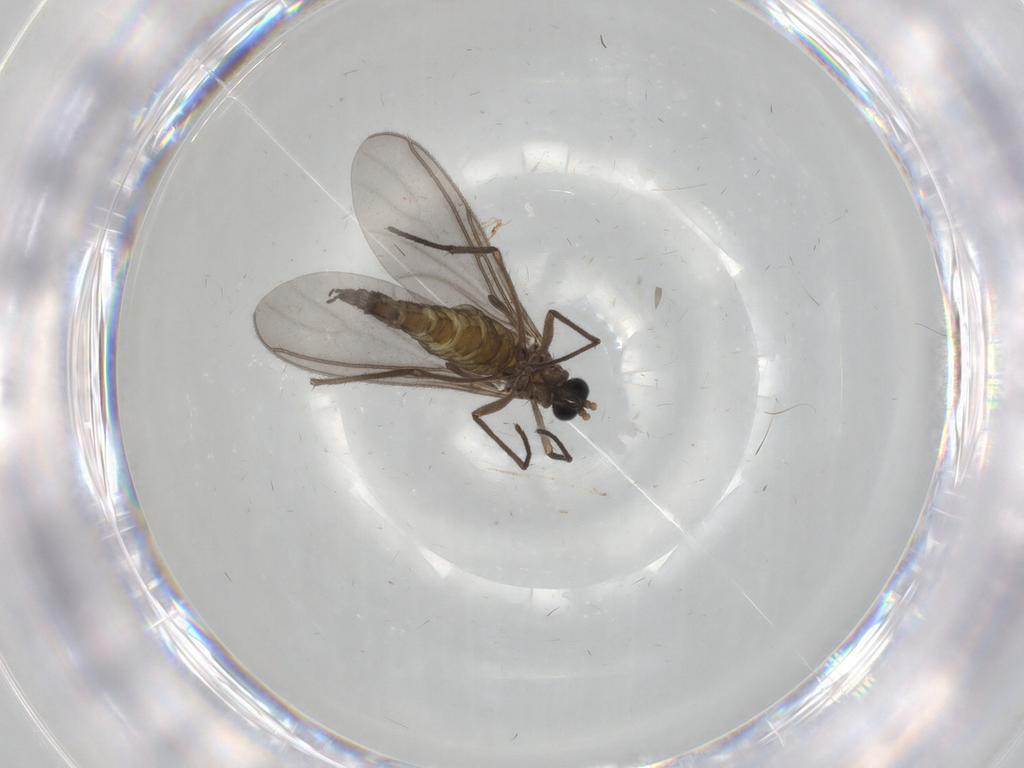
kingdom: Animalia
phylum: Arthropoda
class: Insecta
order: Diptera
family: Sciaridae
